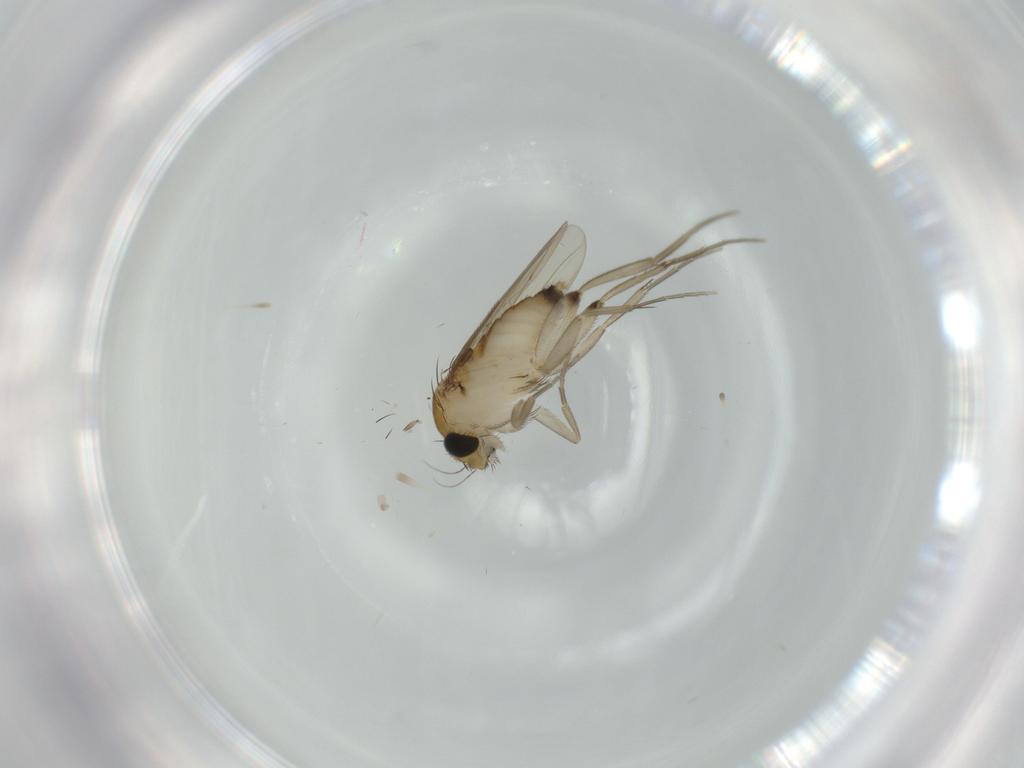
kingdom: Animalia
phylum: Arthropoda
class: Insecta
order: Diptera
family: Phoridae
